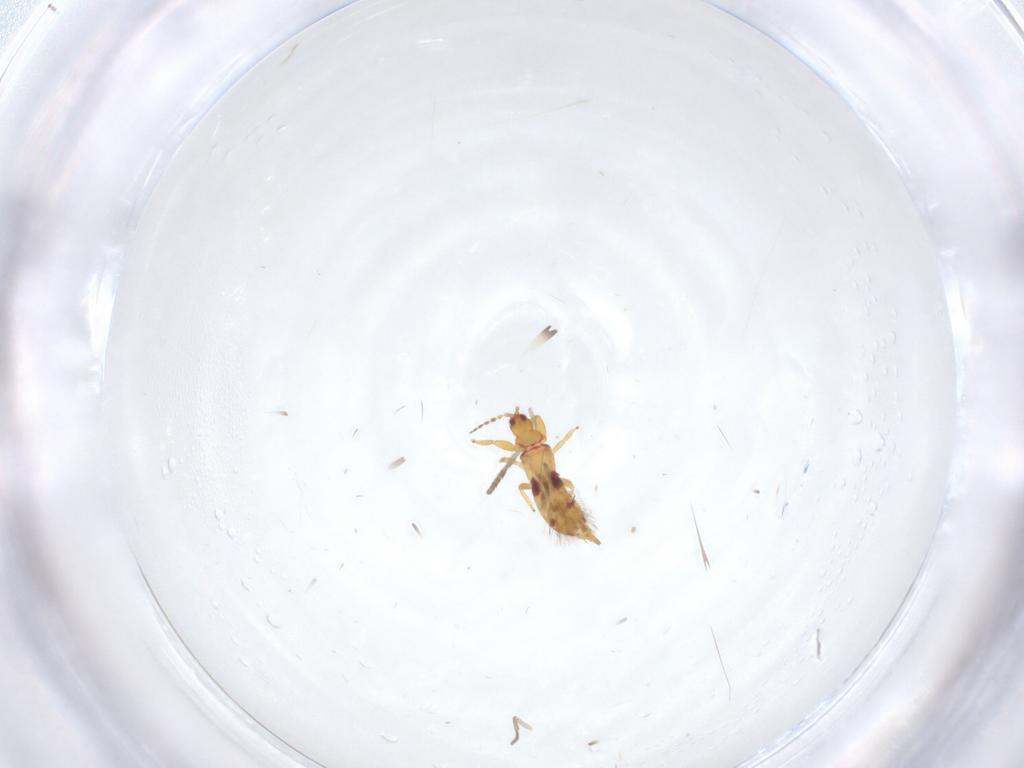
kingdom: Animalia
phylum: Arthropoda
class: Insecta
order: Thysanoptera
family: Phlaeothripidae
